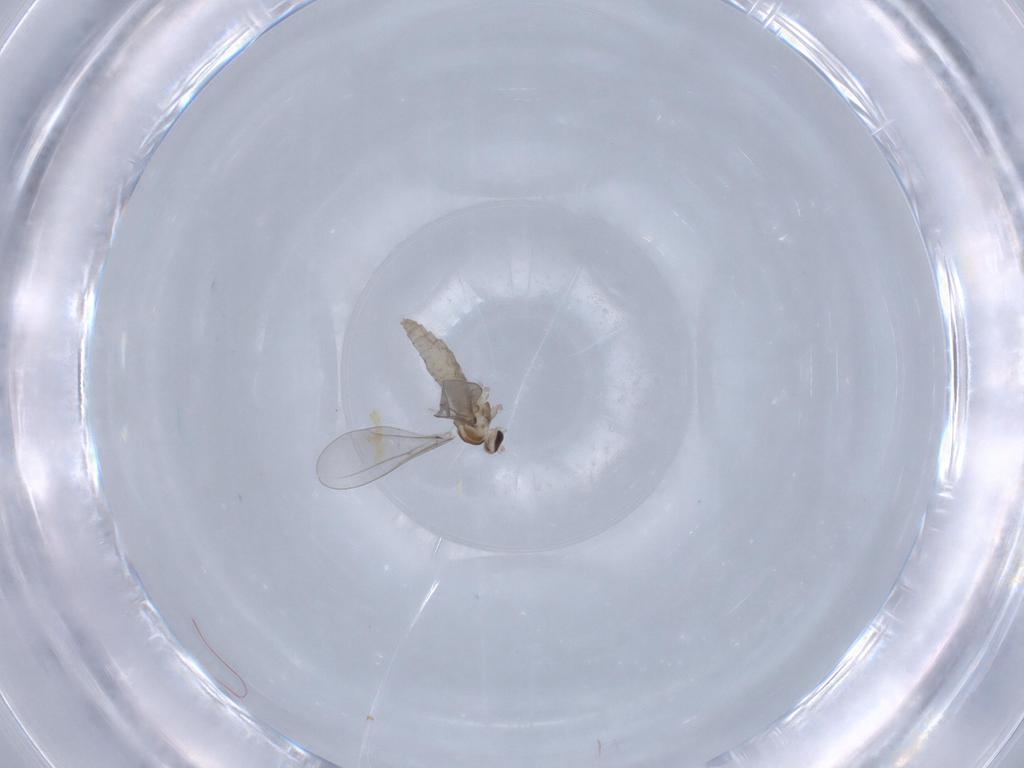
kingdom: Animalia
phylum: Arthropoda
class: Insecta
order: Diptera
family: Cecidomyiidae
